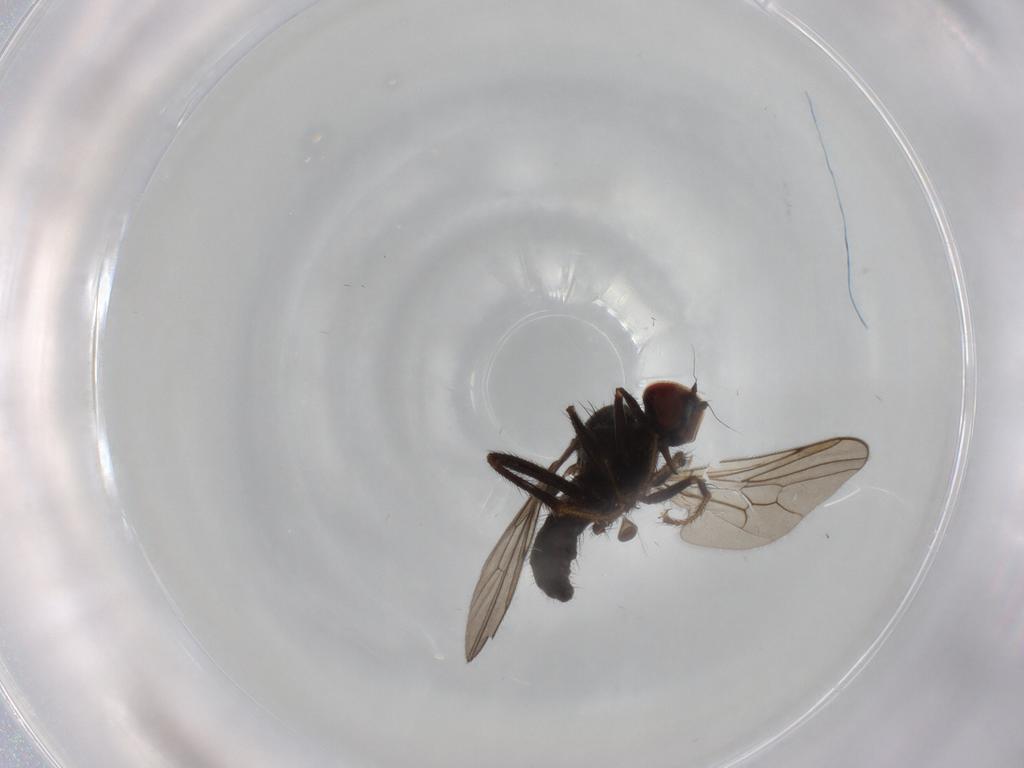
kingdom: Animalia
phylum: Arthropoda
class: Insecta
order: Diptera
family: Hybotidae
